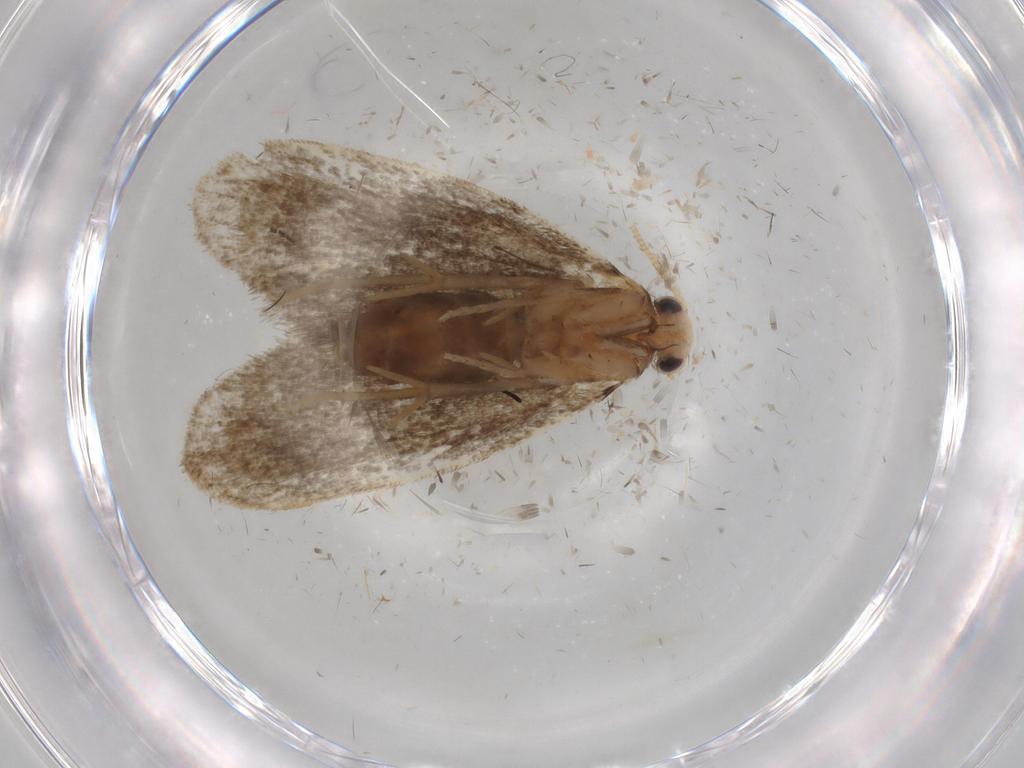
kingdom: Animalia
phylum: Arthropoda
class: Insecta
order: Lepidoptera
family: Dryadaulidae
